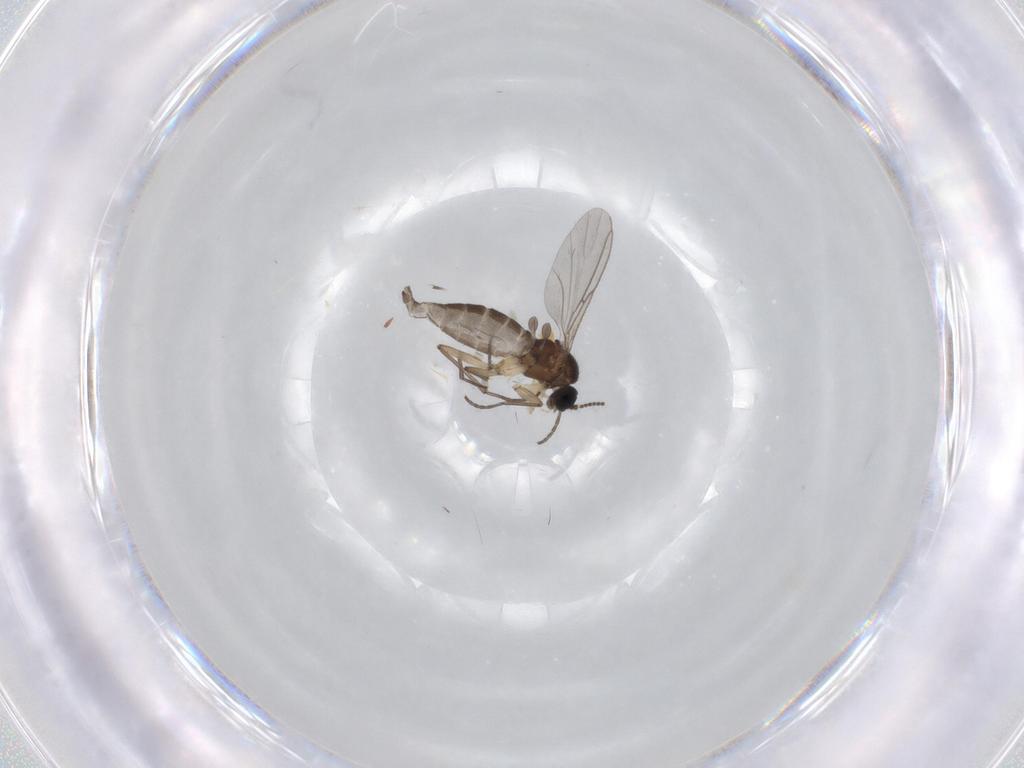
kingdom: Animalia
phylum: Arthropoda
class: Insecta
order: Diptera
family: Sciaridae
